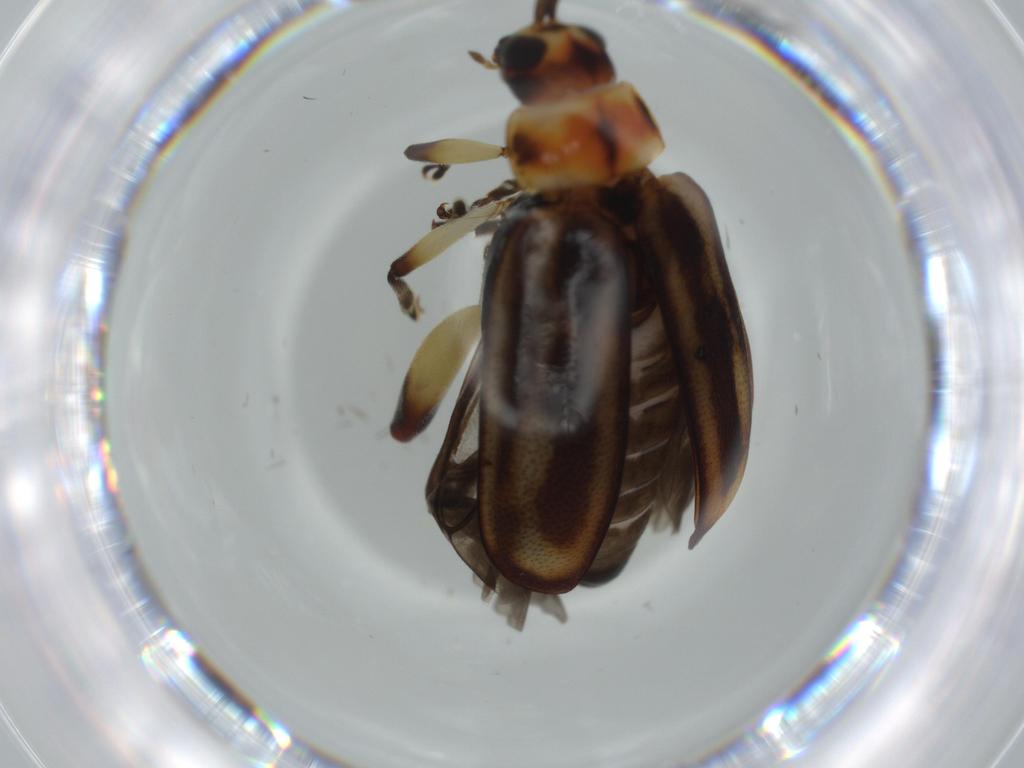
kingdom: Animalia
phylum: Arthropoda
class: Insecta
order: Coleoptera
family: Chrysomelidae
